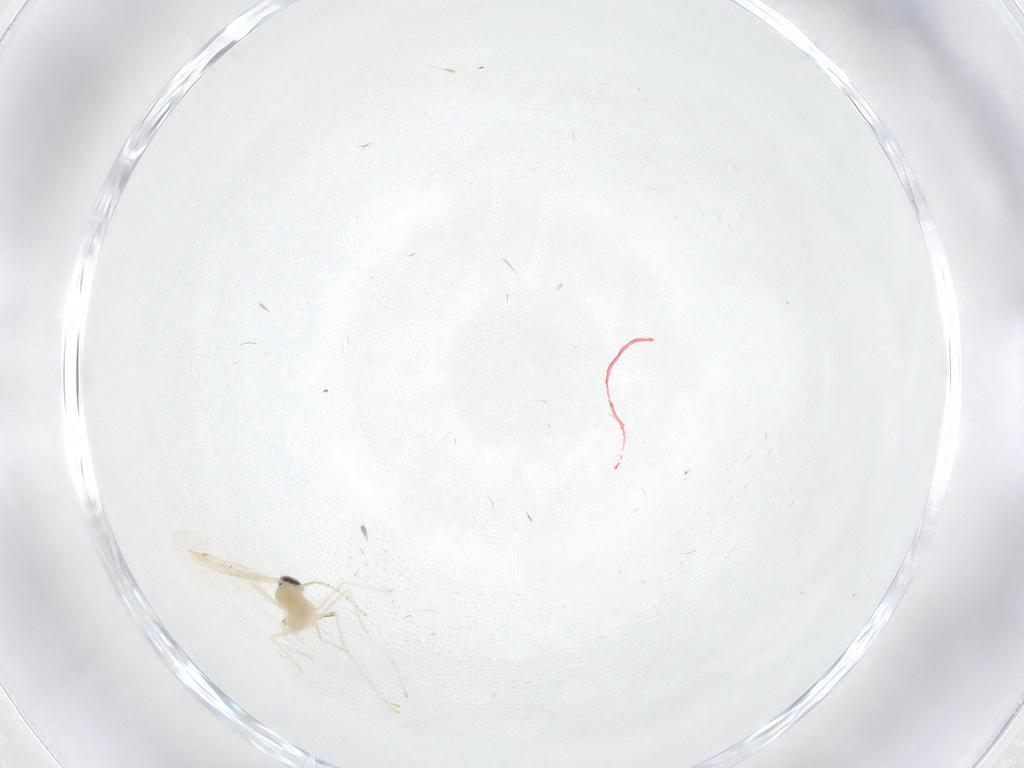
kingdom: Animalia
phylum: Arthropoda
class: Insecta
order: Diptera
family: Cecidomyiidae
